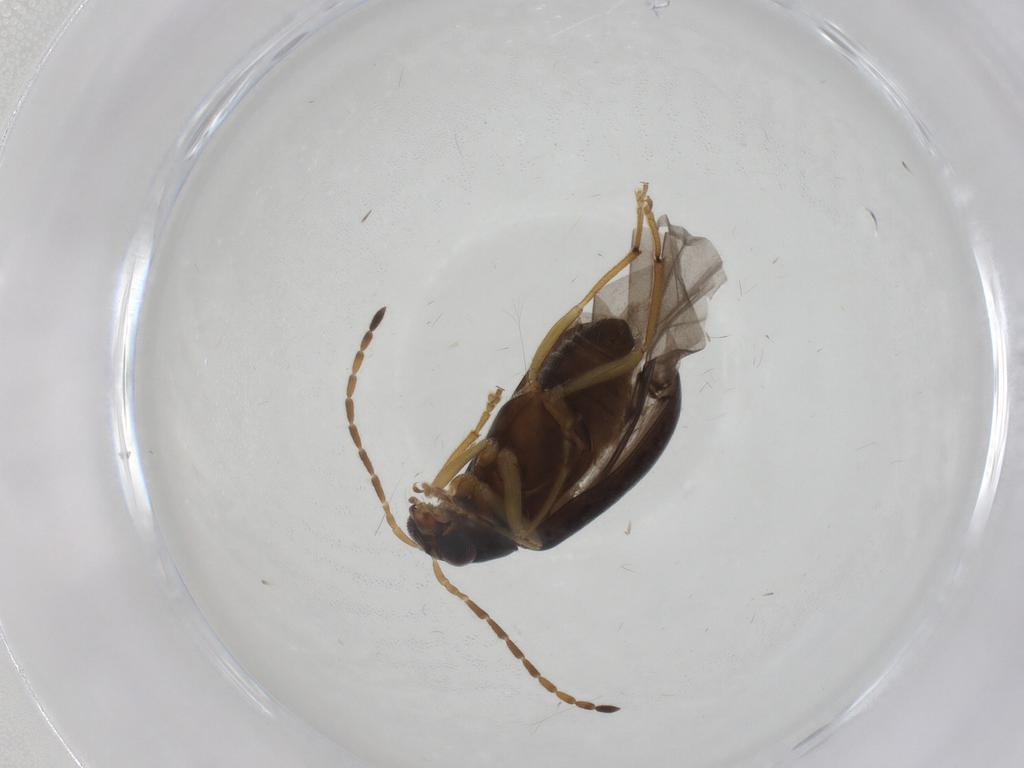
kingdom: Animalia
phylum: Arthropoda
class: Insecta
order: Coleoptera
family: Chrysomelidae
